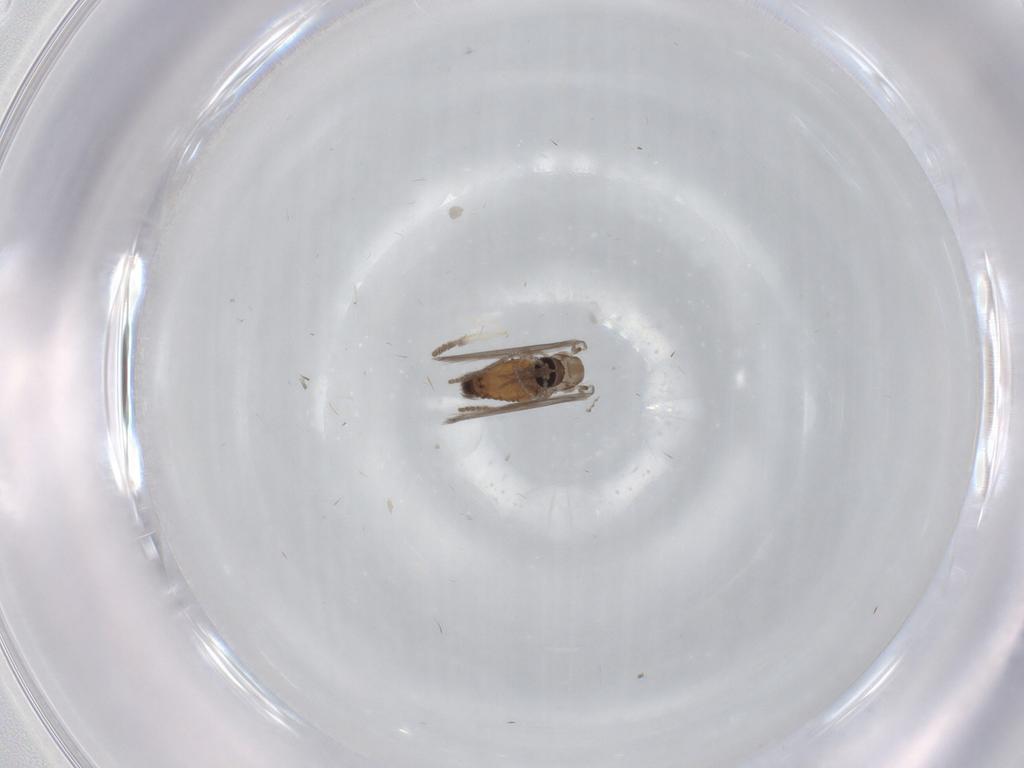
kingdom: Animalia
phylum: Arthropoda
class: Insecta
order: Diptera
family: Psychodidae
